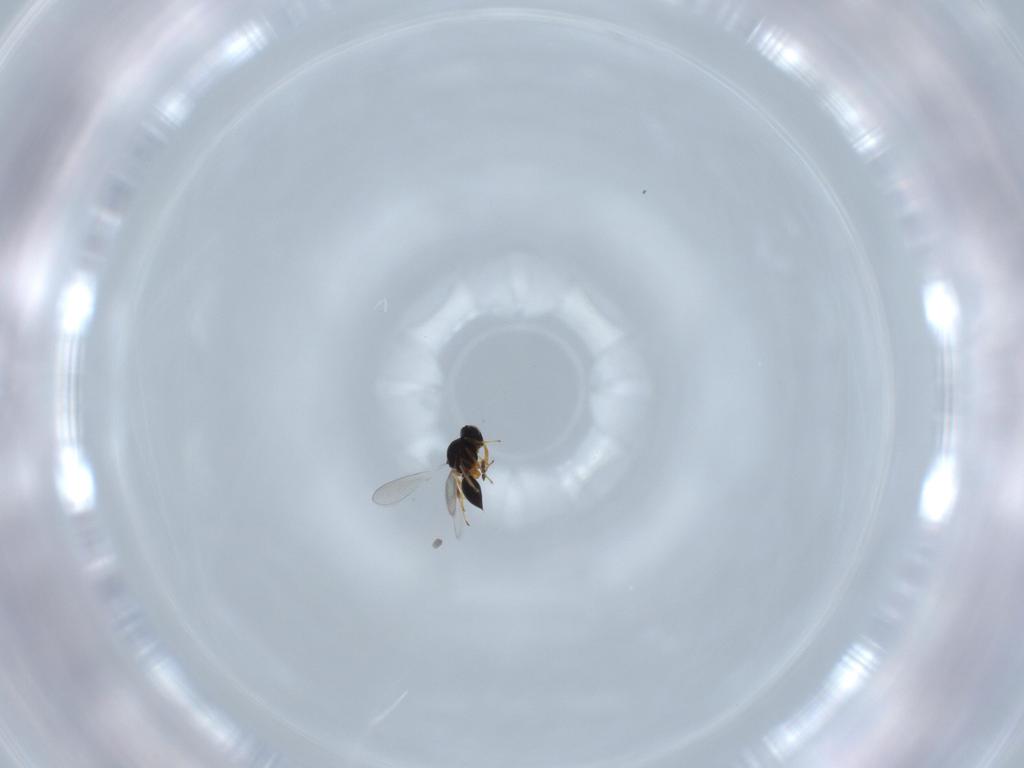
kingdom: Animalia
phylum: Arthropoda
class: Insecta
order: Hymenoptera
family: Platygastridae
